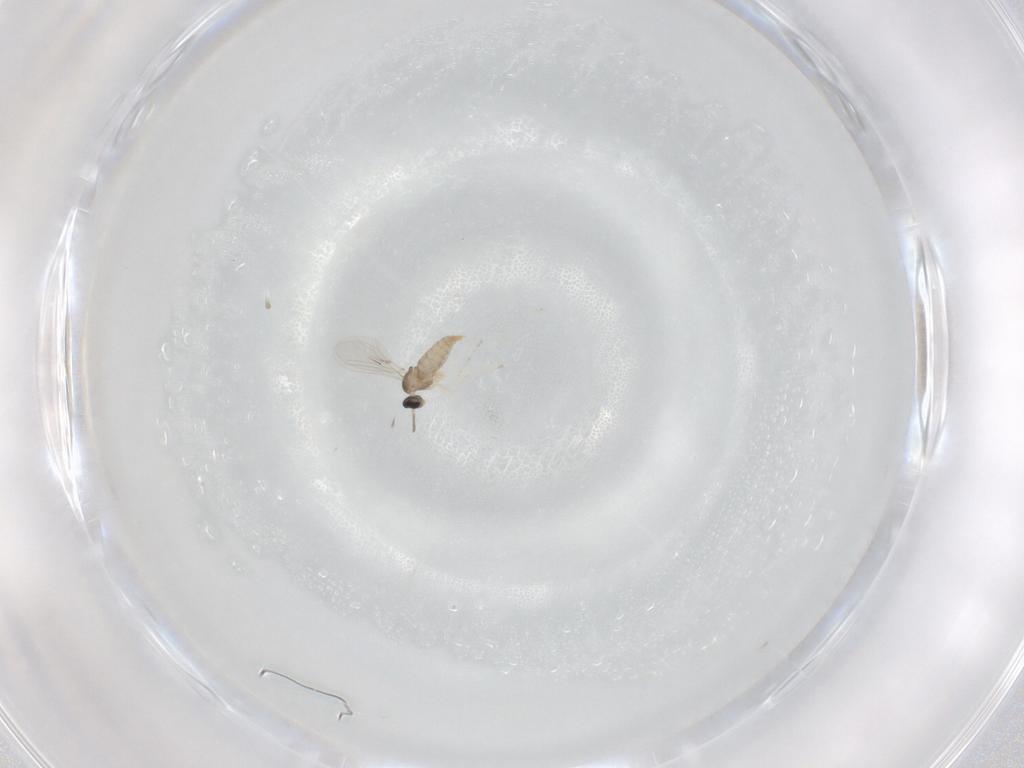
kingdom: Animalia
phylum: Arthropoda
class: Insecta
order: Diptera
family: Cecidomyiidae
